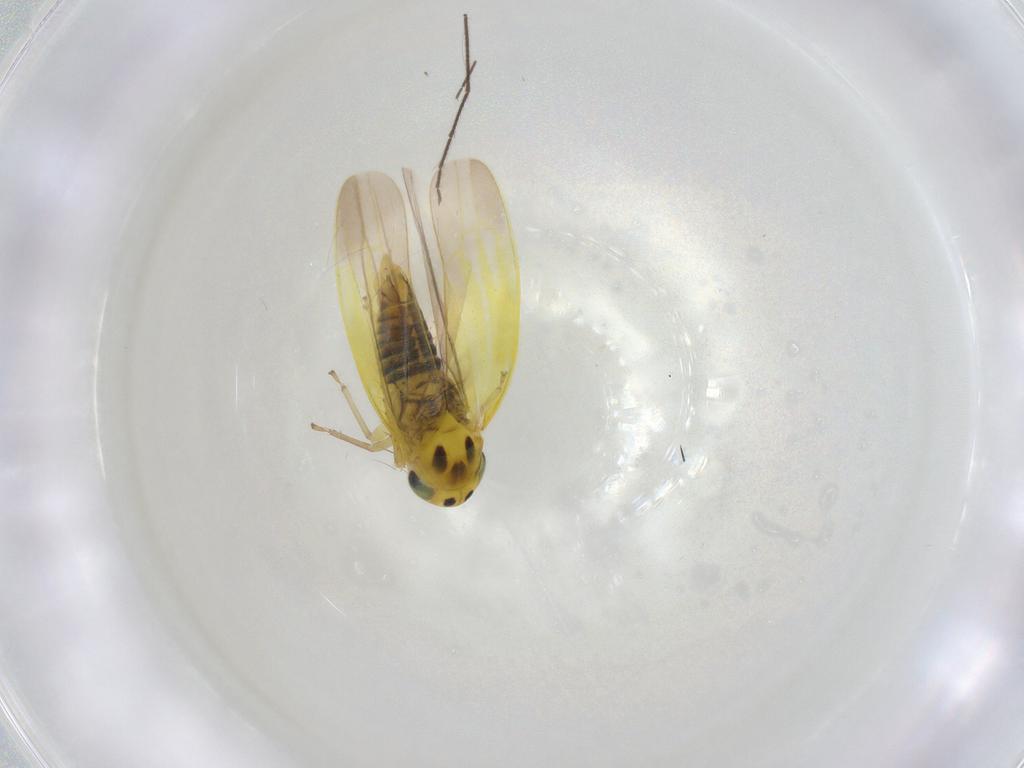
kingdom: Animalia
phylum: Arthropoda
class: Insecta
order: Hemiptera
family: Cicadellidae
